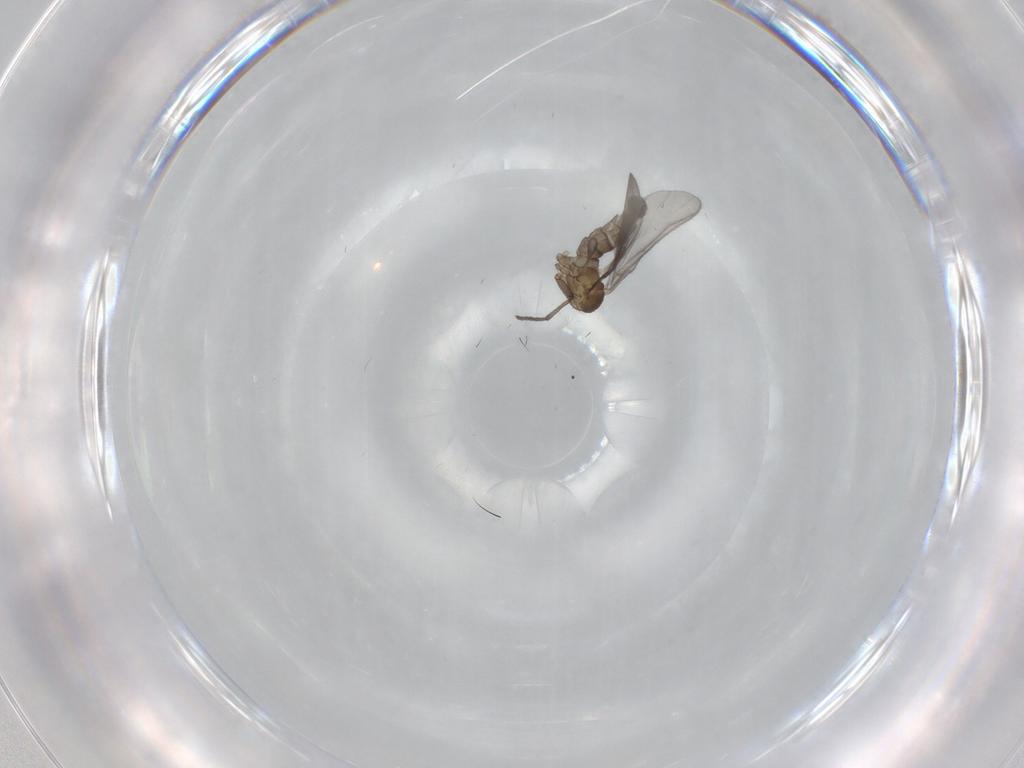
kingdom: Animalia
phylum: Arthropoda
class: Insecta
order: Diptera
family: Sciaridae
